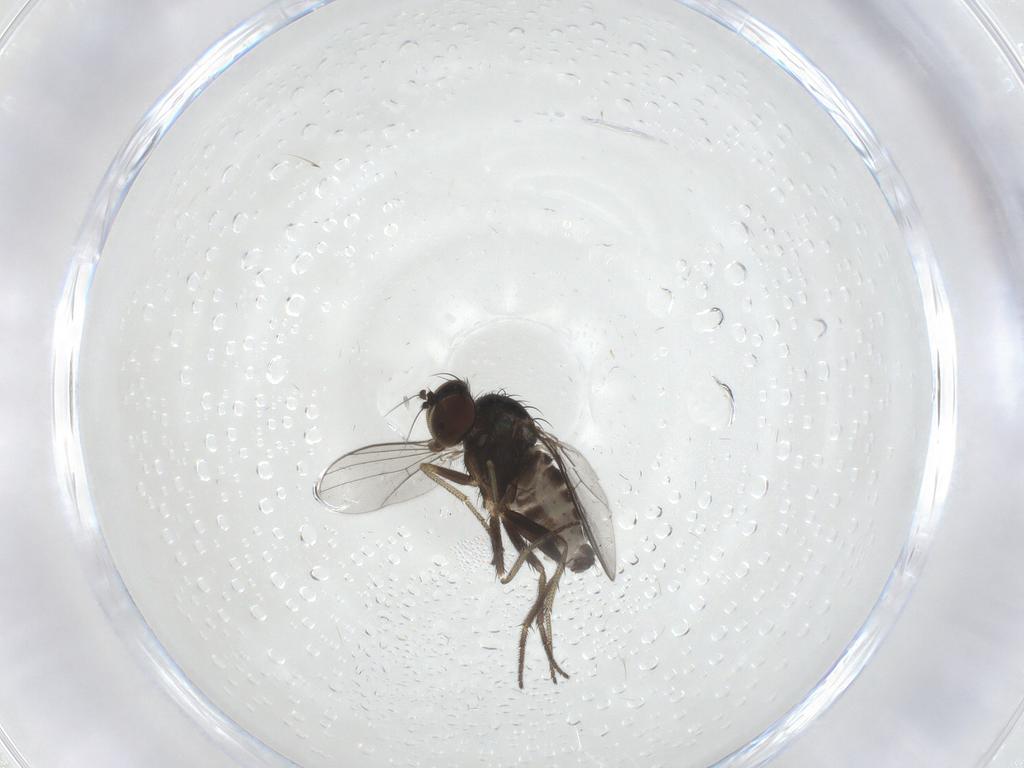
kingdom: Animalia
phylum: Arthropoda
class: Insecta
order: Diptera
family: Dolichopodidae
